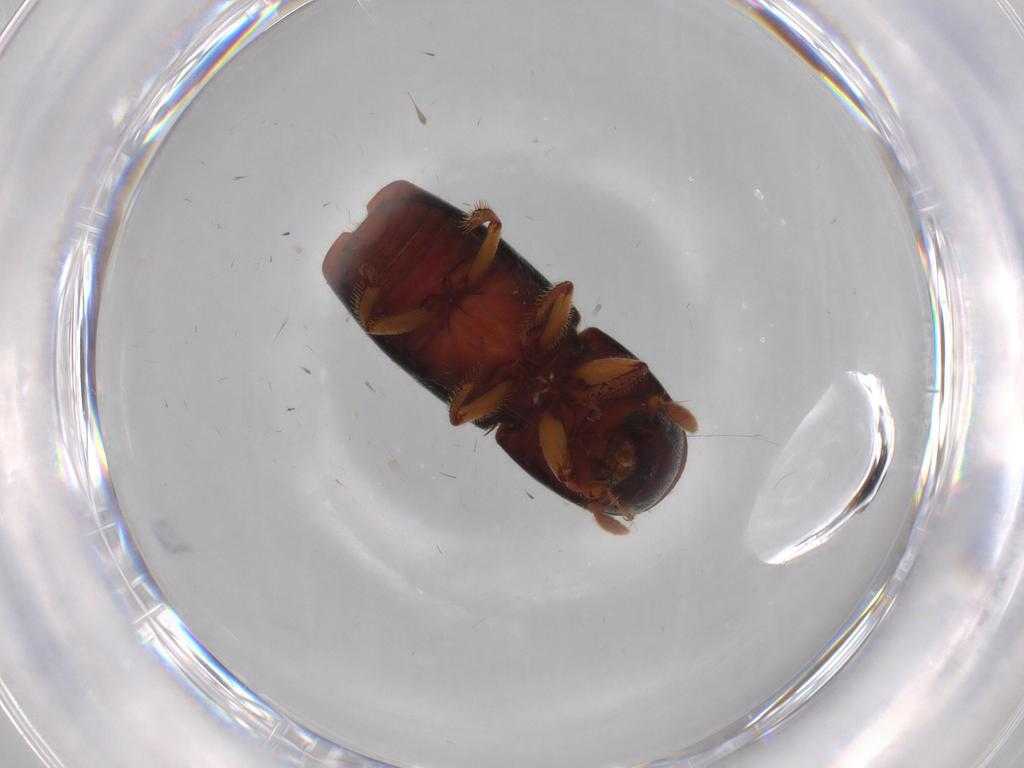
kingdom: Animalia
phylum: Arthropoda
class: Insecta
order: Coleoptera
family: Curculionidae
